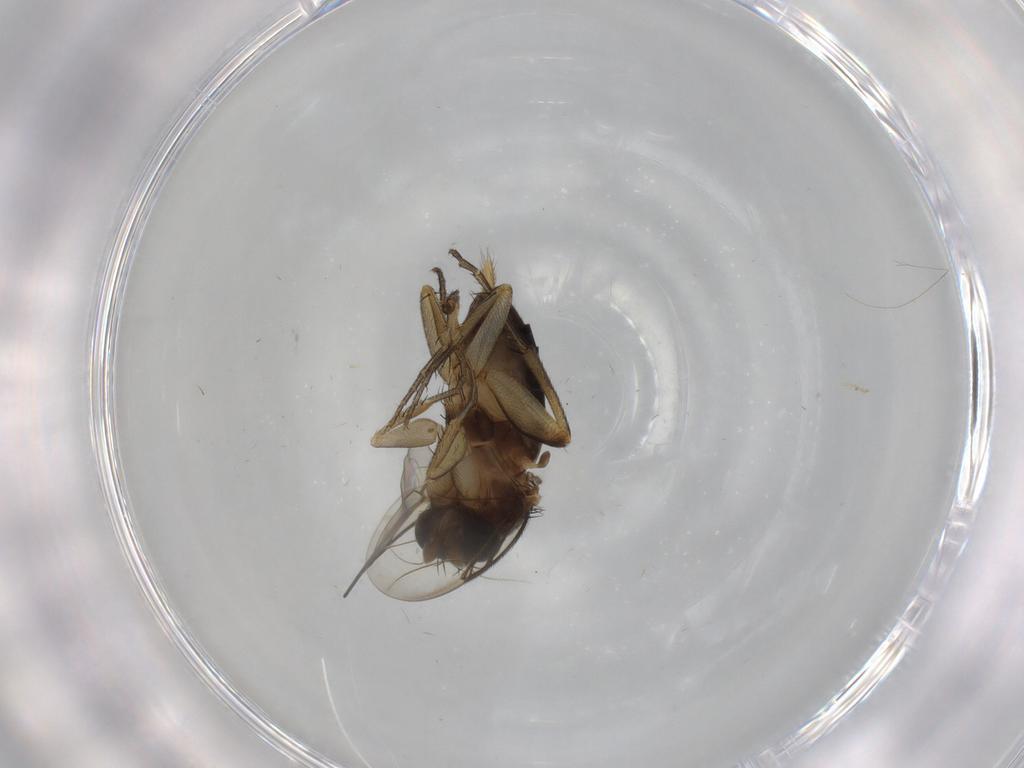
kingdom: Animalia
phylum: Arthropoda
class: Insecta
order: Diptera
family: Phoridae
